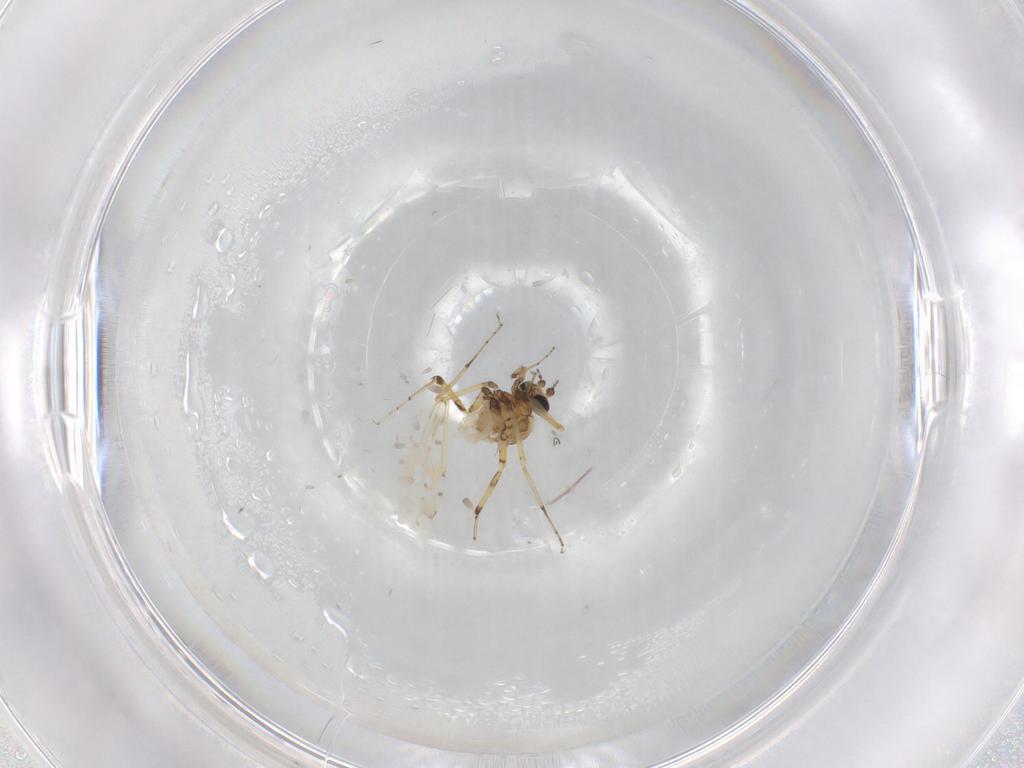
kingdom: Animalia
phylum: Arthropoda
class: Insecta
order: Diptera
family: Ceratopogonidae
